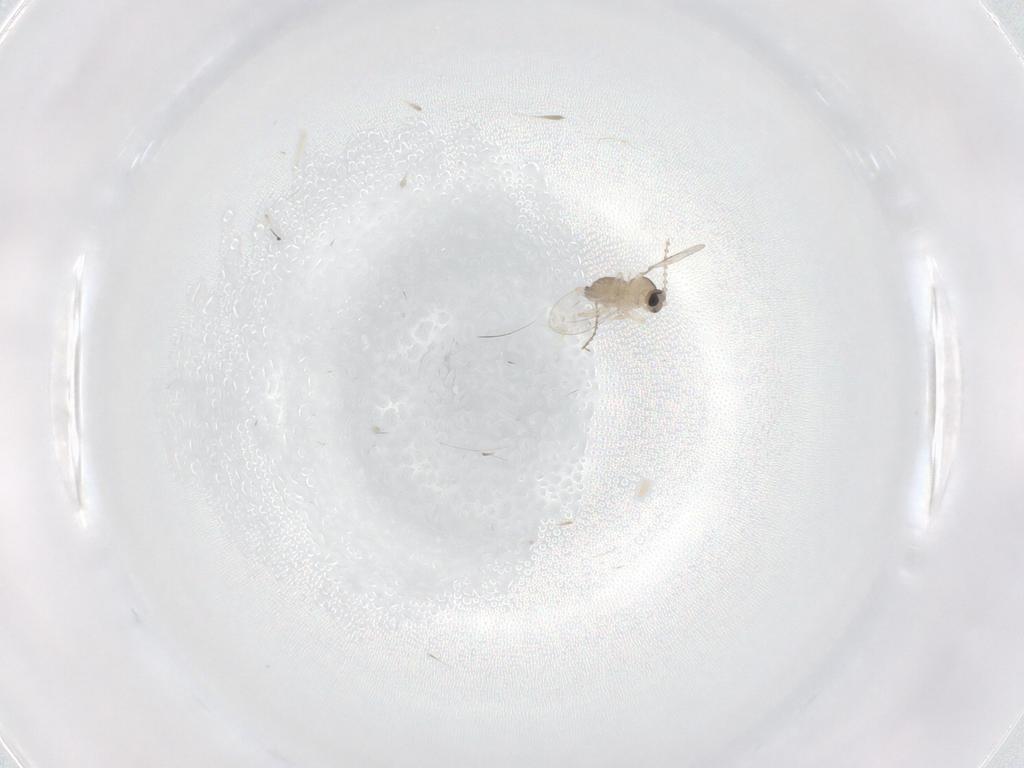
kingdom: Animalia
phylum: Arthropoda
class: Insecta
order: Diptera
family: Cecidomyiidae
